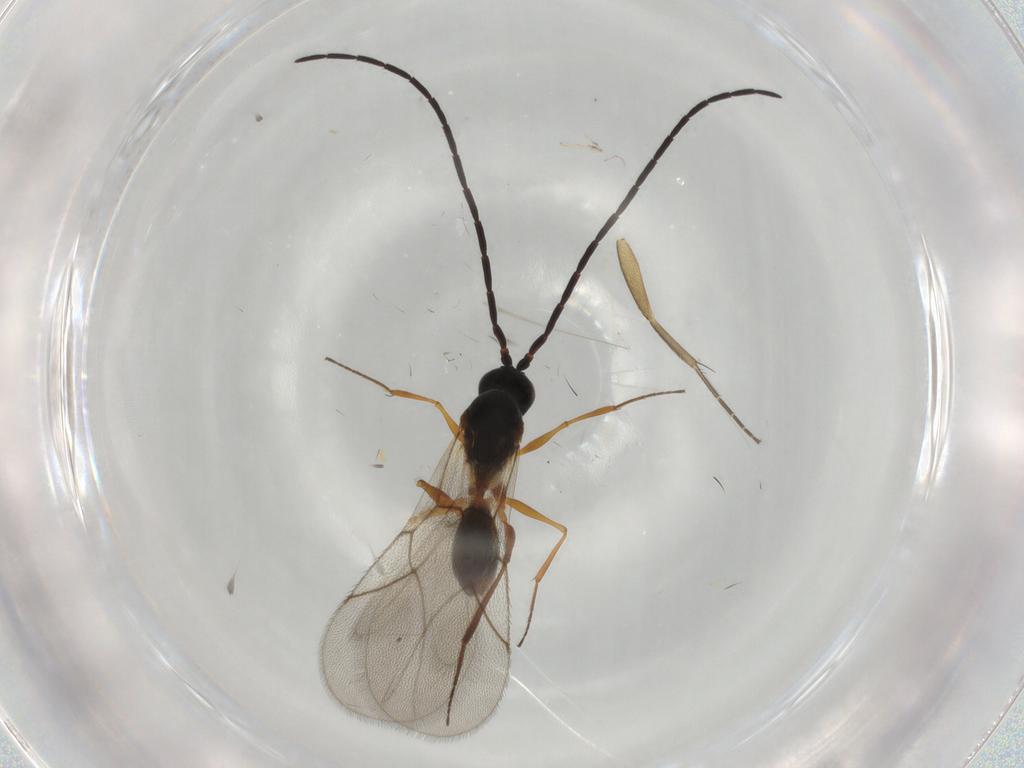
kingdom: Animalia
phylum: Arthropoda
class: Insecta
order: Hymenoptera
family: Figitidae
